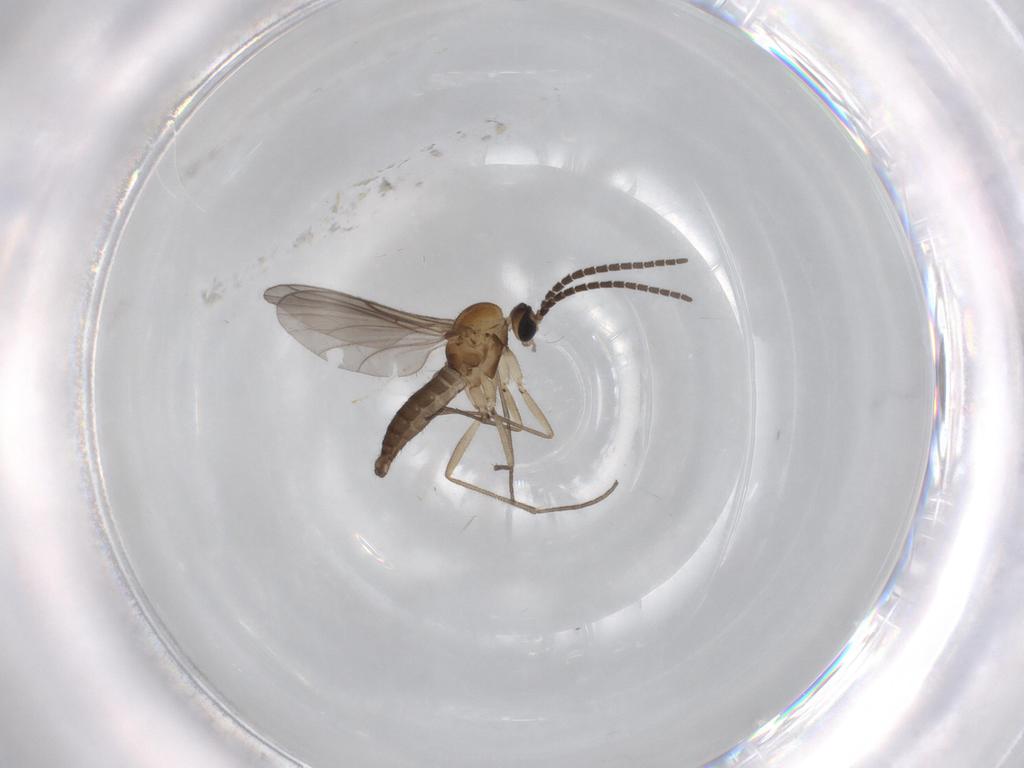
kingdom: Animalia
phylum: Arthropoda
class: Insecta
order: Diptera
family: Sciaridae
